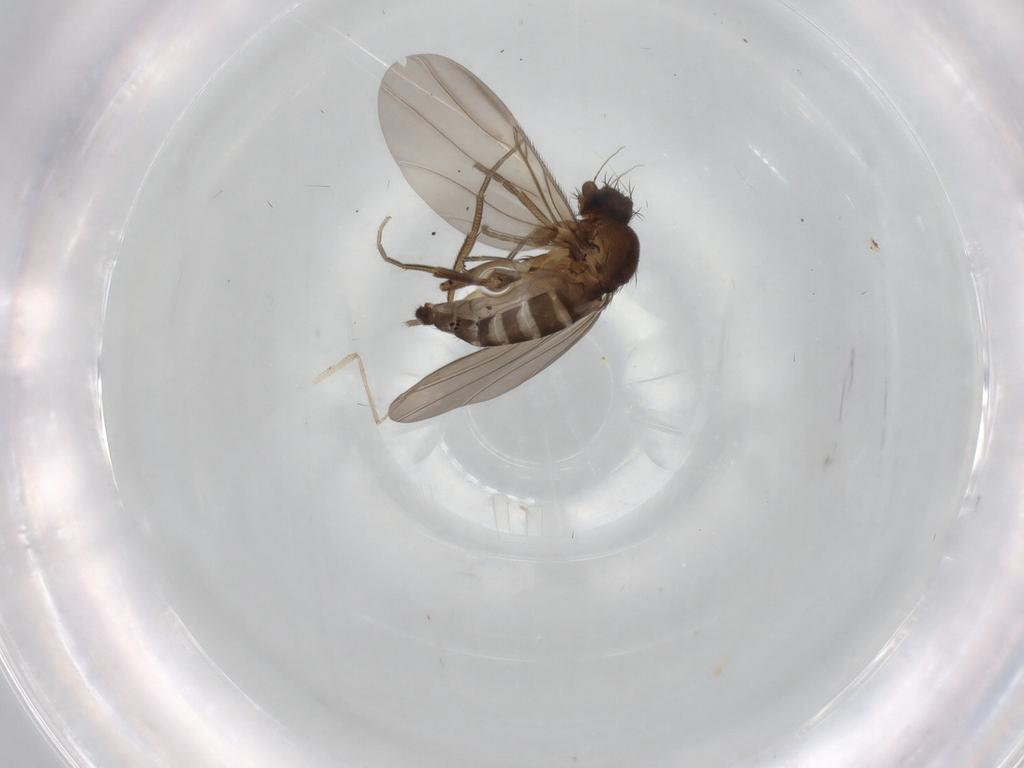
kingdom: Animalia
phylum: Arthropoda
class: Insecta
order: Diptera
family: Phoridae
